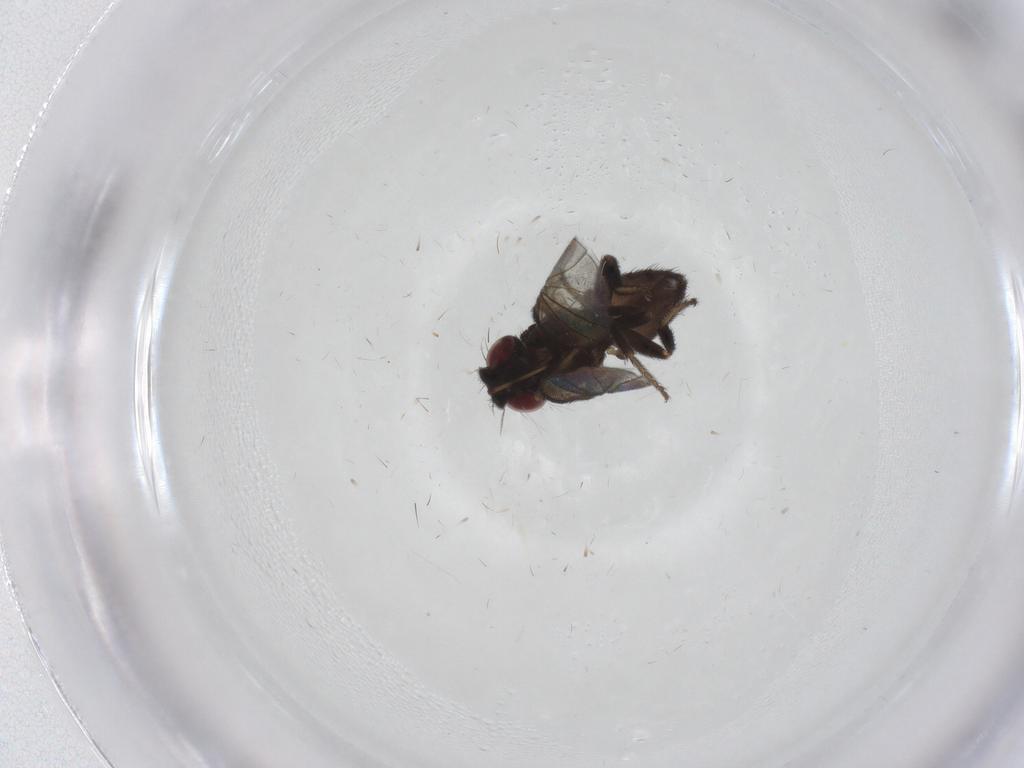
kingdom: Animalia
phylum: Arthropoda
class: Insecta
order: Diptera
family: Milichiidae
